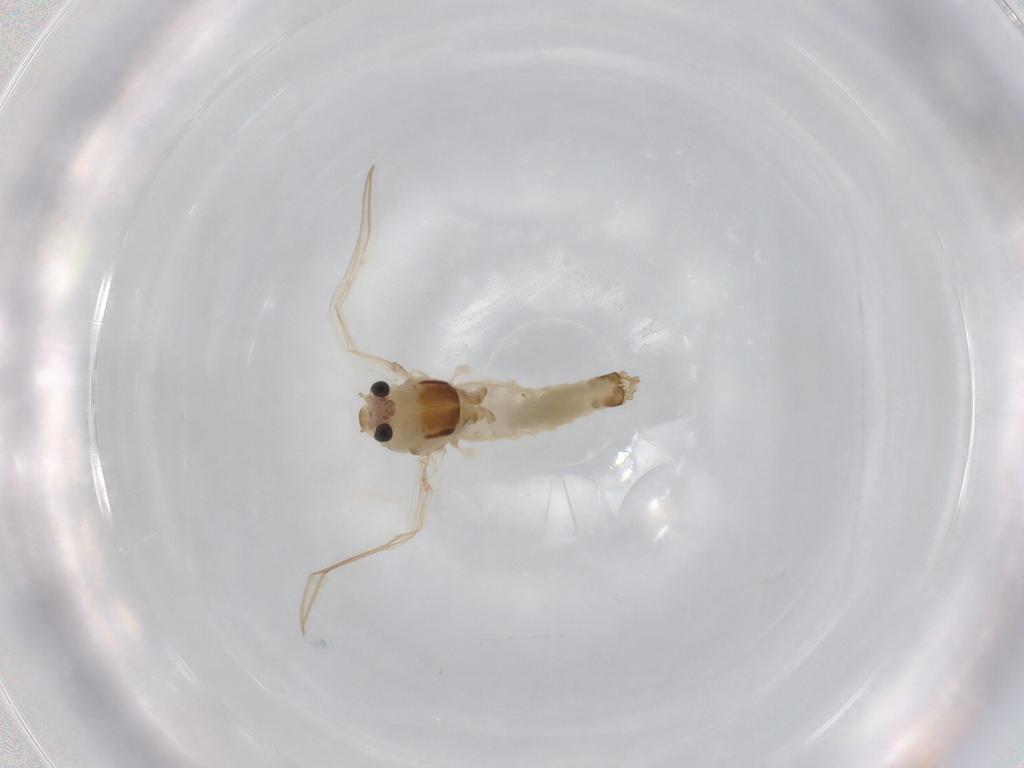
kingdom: Animalia
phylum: Arthropoda
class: Insecta
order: Diptera
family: Chironomidae
